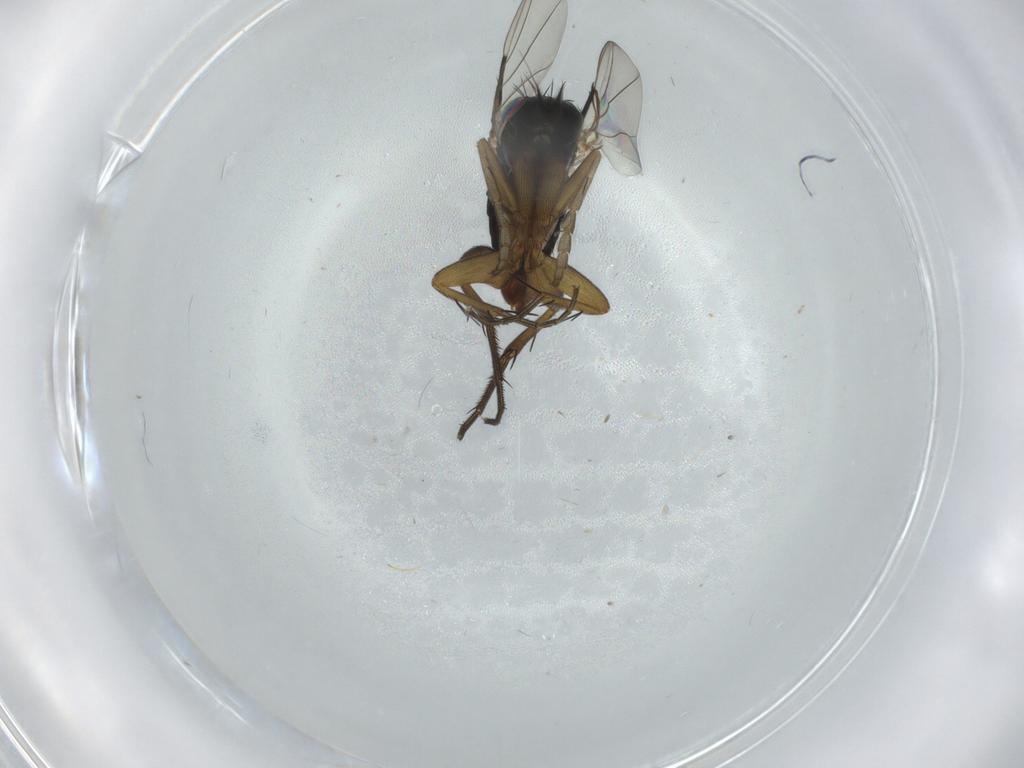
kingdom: Animalia
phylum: Arthropoda
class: Insecta
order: Diptera
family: Phoridae
